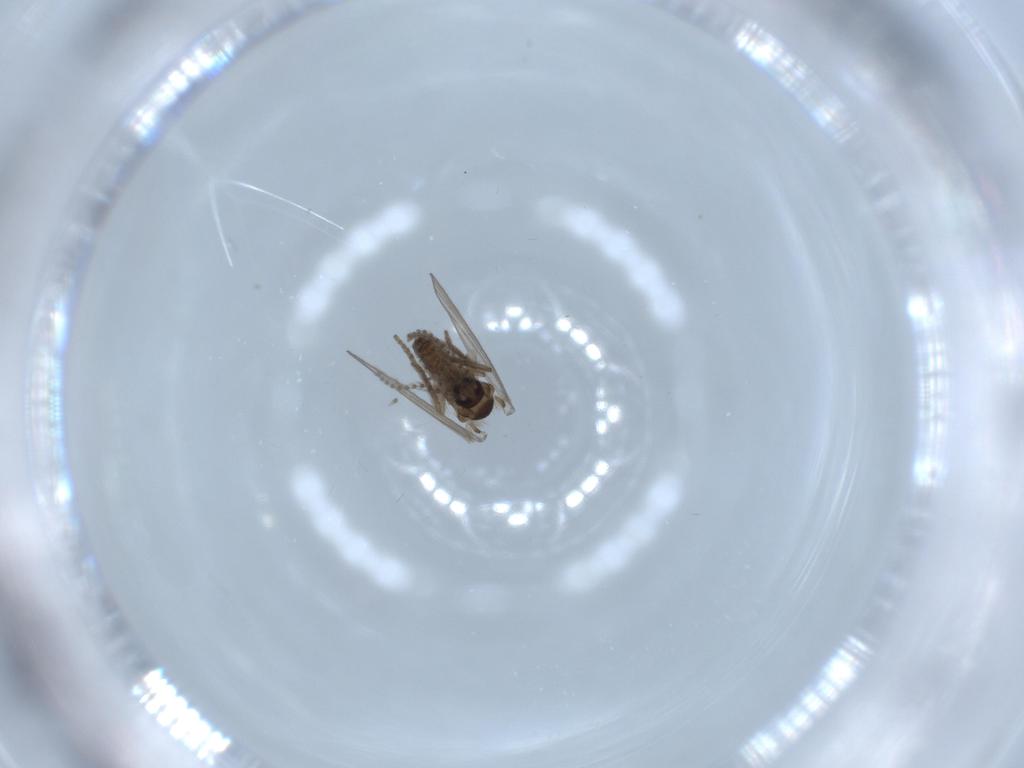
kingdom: Animalia
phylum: Arthropoda
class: Insecta
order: Diptera
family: Psychodidae
